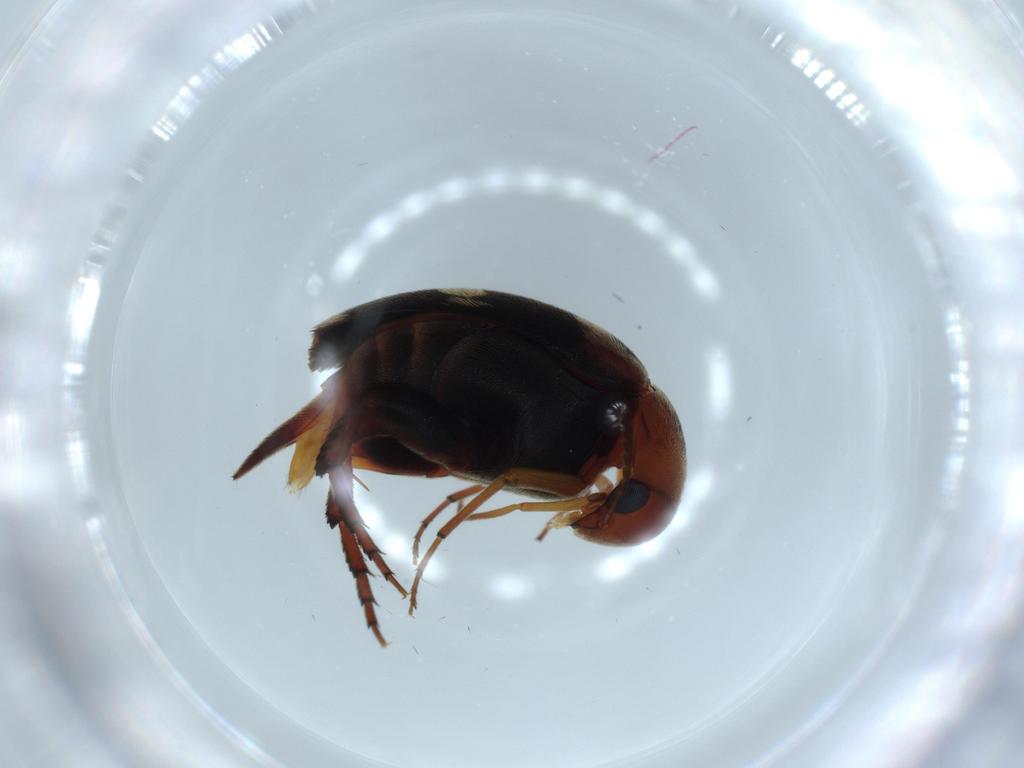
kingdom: Animalia
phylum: Arthropoda
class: Insecta
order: Coleoptera
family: Mordellidae
